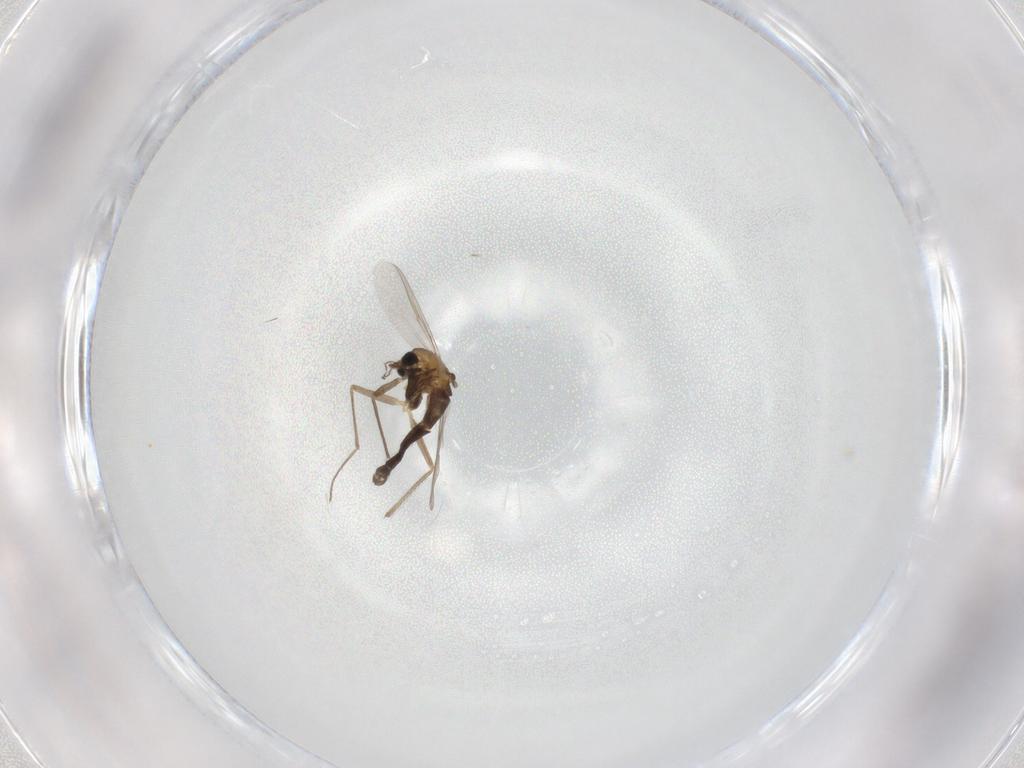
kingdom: Animalia
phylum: Arthropoda
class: Insecta
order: Diptera
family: Chironomidae
